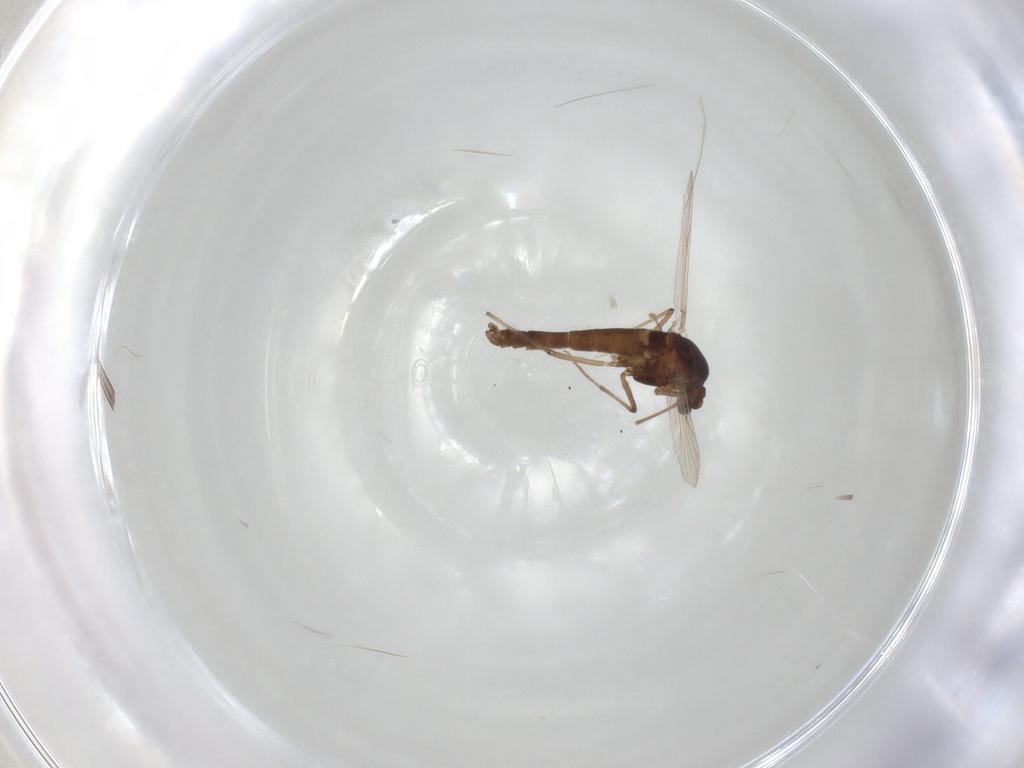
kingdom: Animalia
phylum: Arthropoda
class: Insecta
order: Diptera
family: Chironomidae
